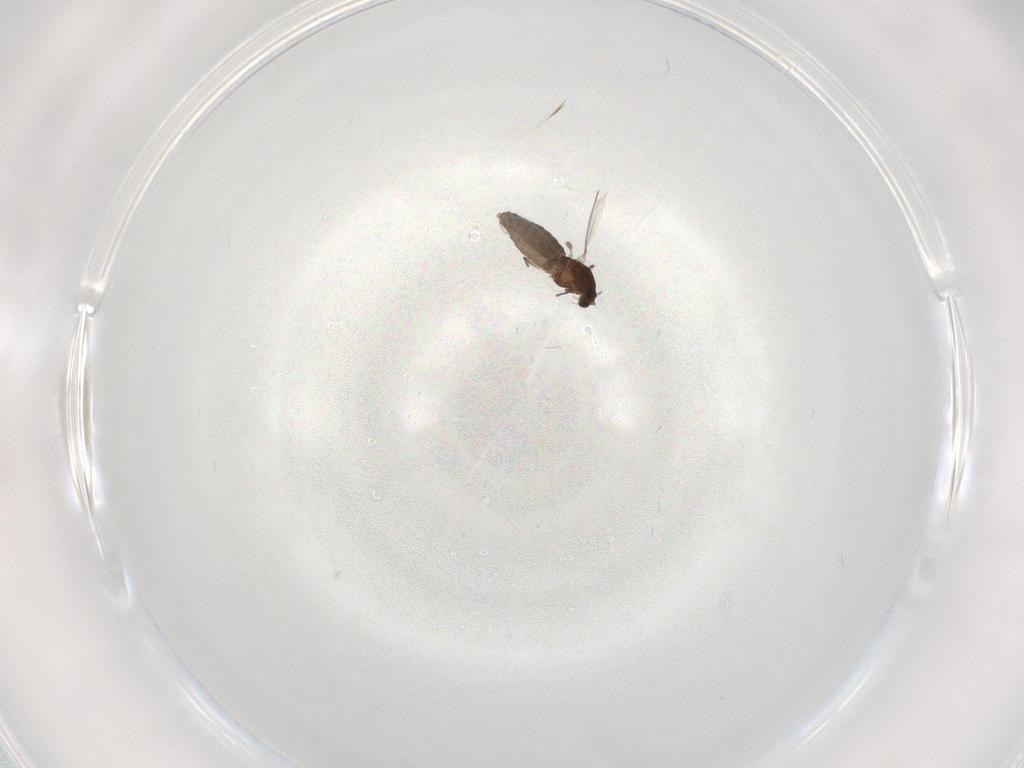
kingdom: Animalia
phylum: Arthropoda
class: Insecta
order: Diptera
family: Chironomidae
